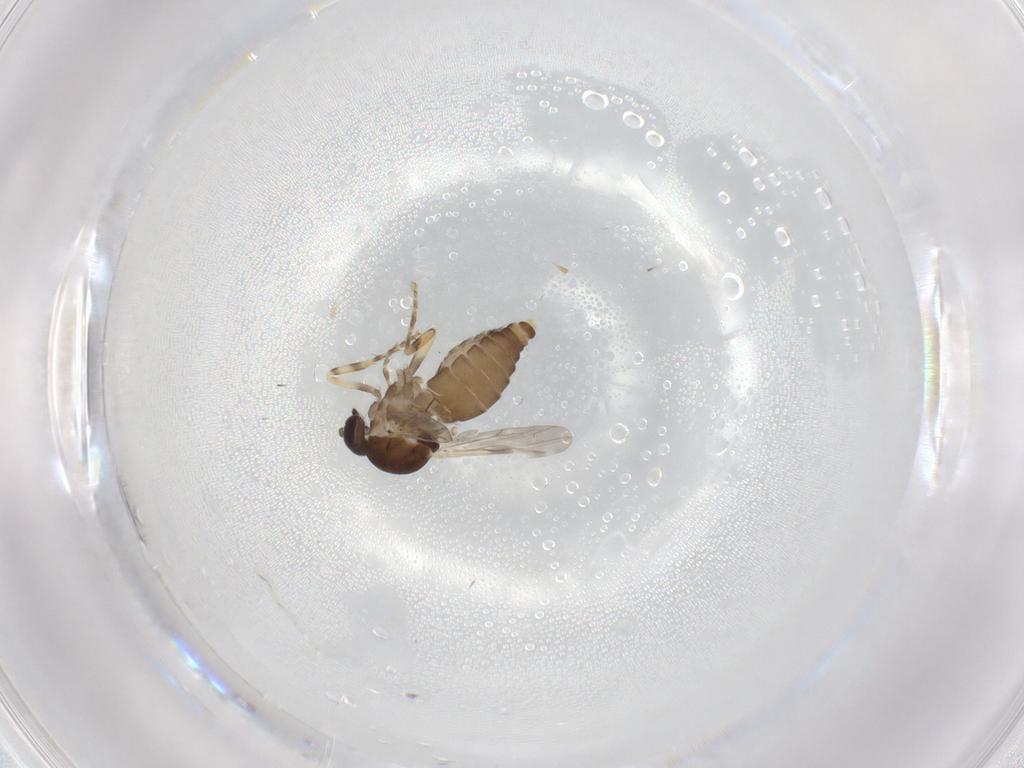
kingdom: Animalia
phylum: Arthropoda
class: Insecta
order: Diptera
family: Ceratopogonidae
